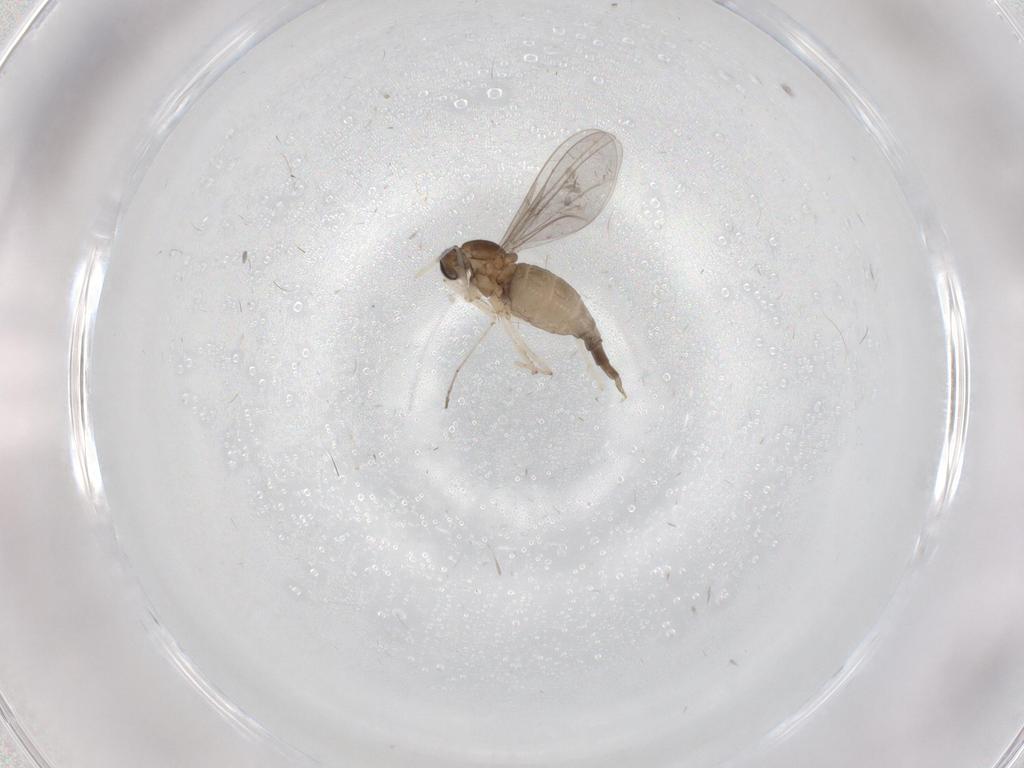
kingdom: Animalia
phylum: Arthropoda
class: Insecta
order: Diptera
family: Cecidomyiidae
